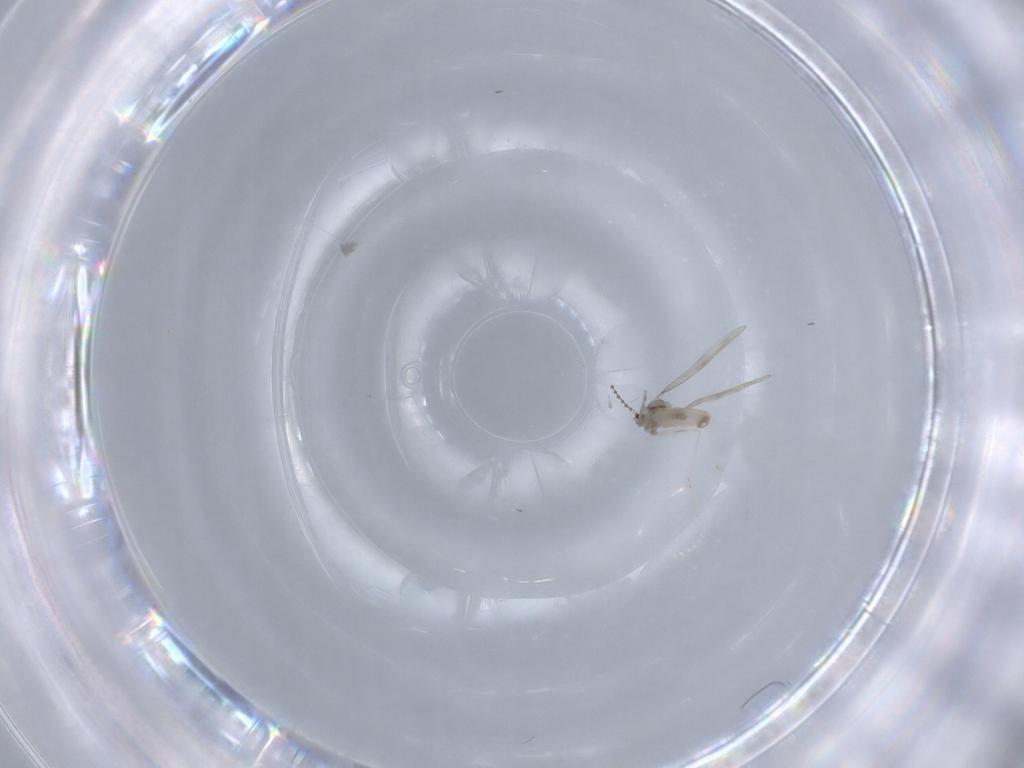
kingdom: Animalia
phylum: Arthropoda
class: Insecta
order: Diptera
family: Cecidomyiidae
